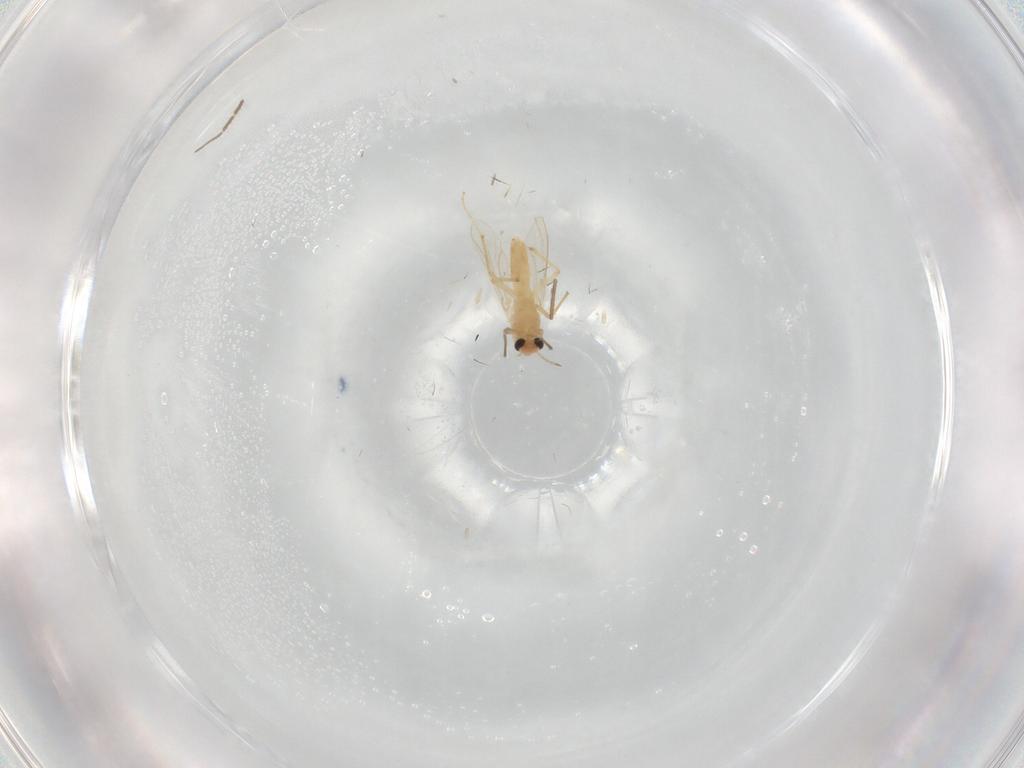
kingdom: Animalia
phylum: Arthropoda
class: Insecta
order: Diptera
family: Chironomidae
